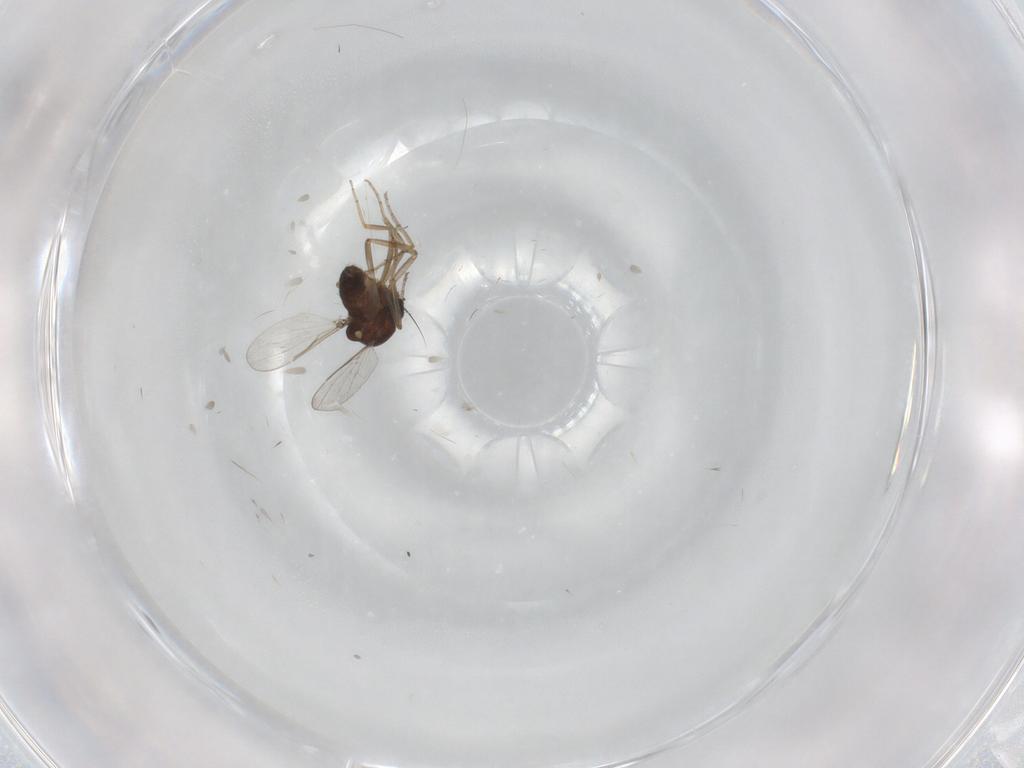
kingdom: Animalia
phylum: Arthropoda
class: Insecta
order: Diptera
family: Ceratopogonidae
